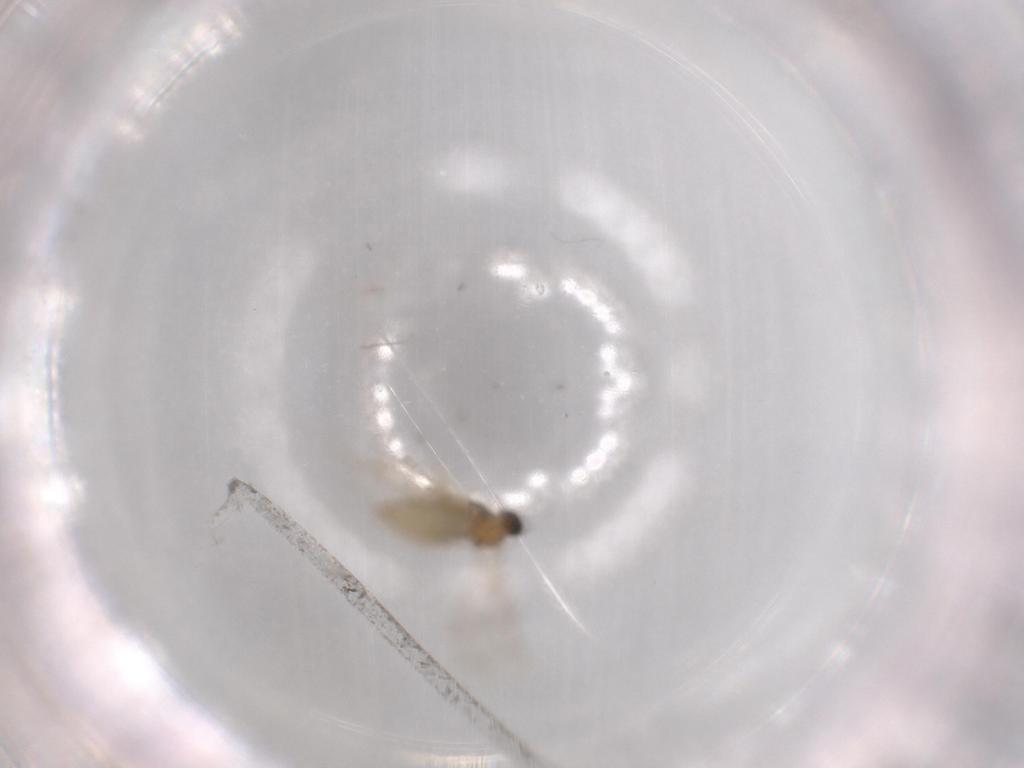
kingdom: Animalia
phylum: Arthropoda
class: Insecta
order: Diptera
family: Cecidomyiidae
